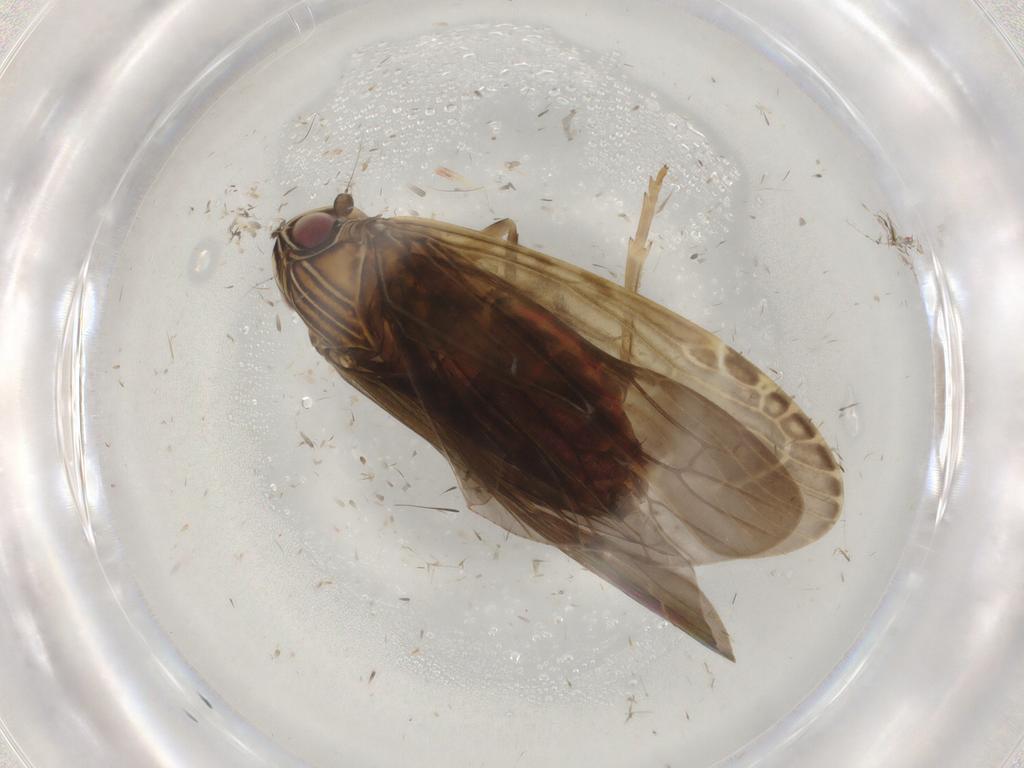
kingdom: Animalia
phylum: Arthropoda
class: Insecta
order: Hemiptera
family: Achilidae
